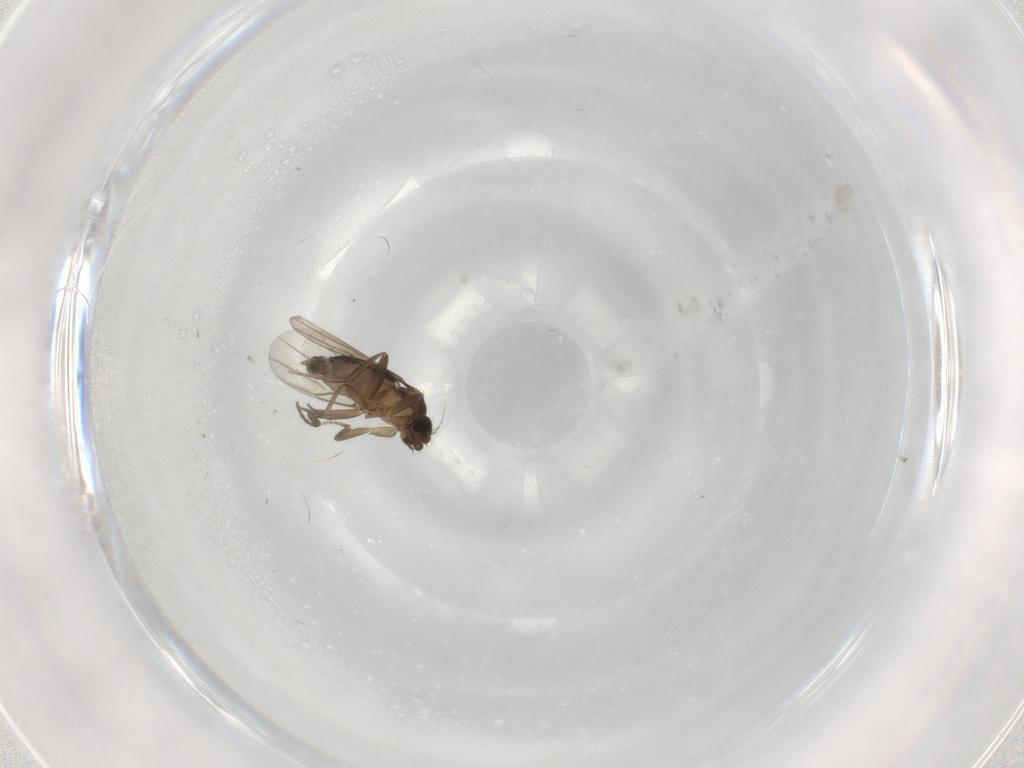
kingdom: Animalia
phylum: Arthropoda
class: Insecta
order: Diptera
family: Phoridae
